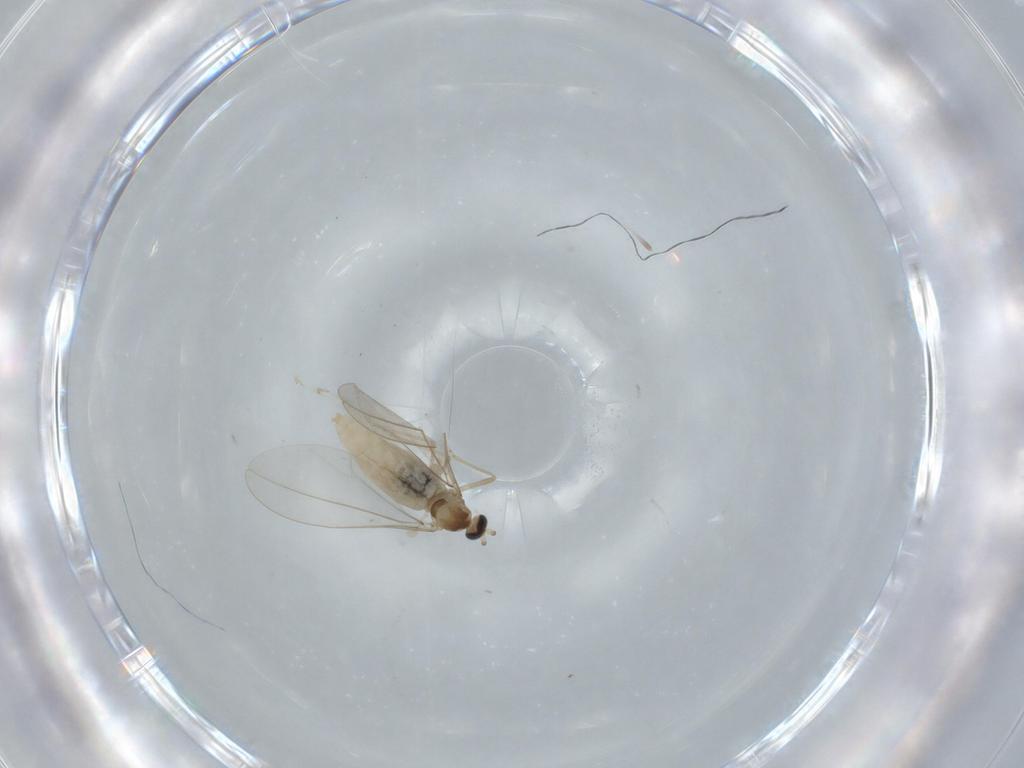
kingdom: Animalia
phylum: Arthropoda
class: Insecta
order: Diptera
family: Cecidomyiidae
